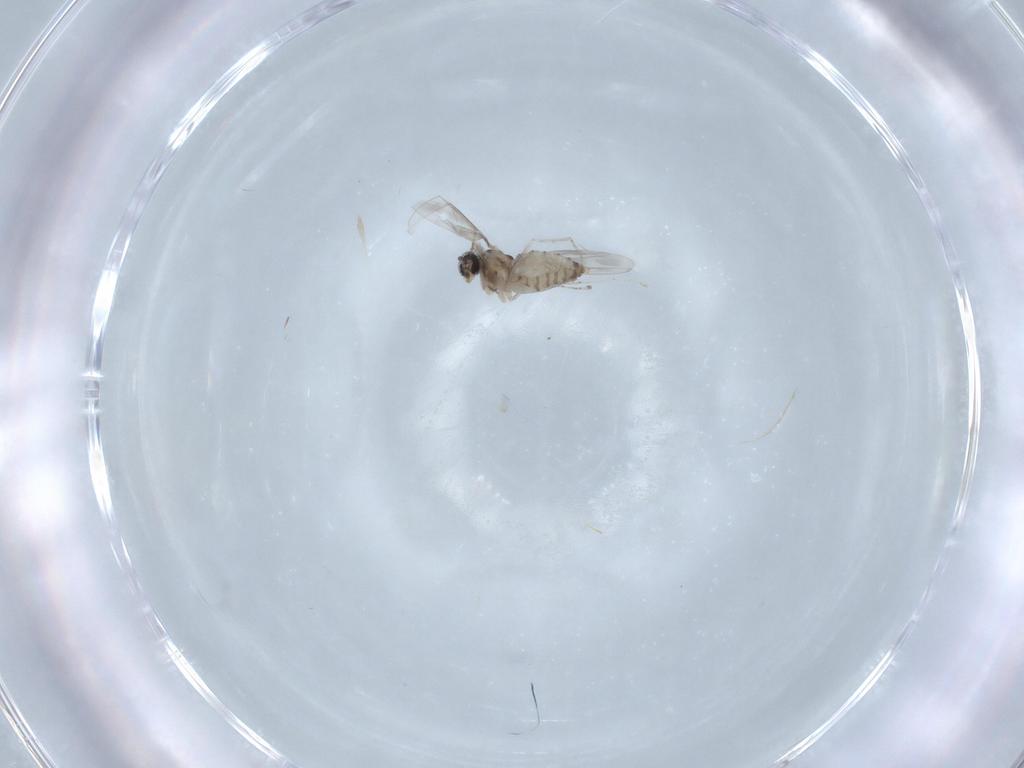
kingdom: Animalia
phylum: Arthropoda
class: Insecta
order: Diptera
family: Cecidomyiidae
